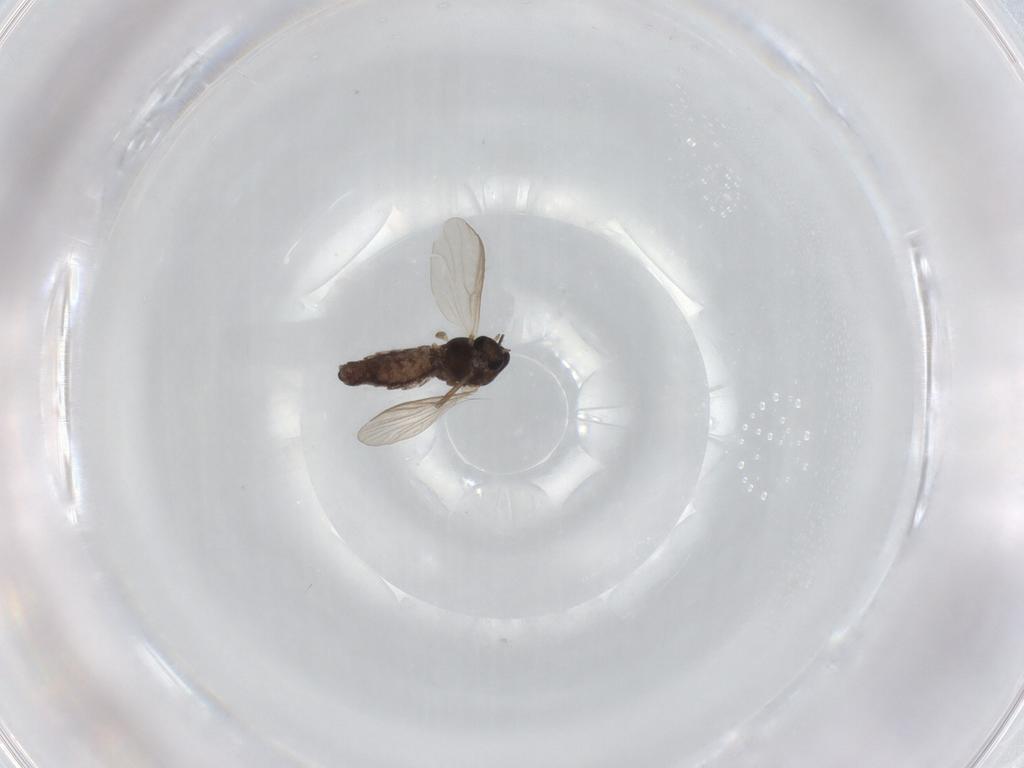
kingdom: Animalia
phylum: Arthropoda
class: Insecta
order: Diptera
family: Chironomidae
